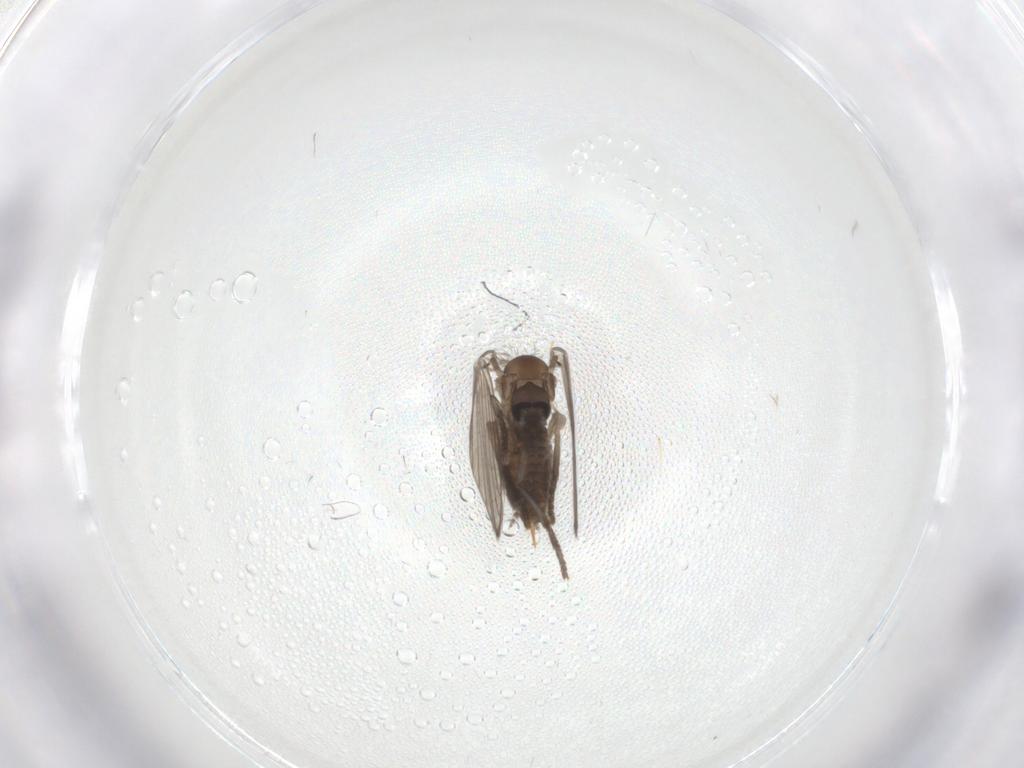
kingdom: Animalia
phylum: Arthropoda
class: Insecta
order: Diptera
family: Psychodidae
